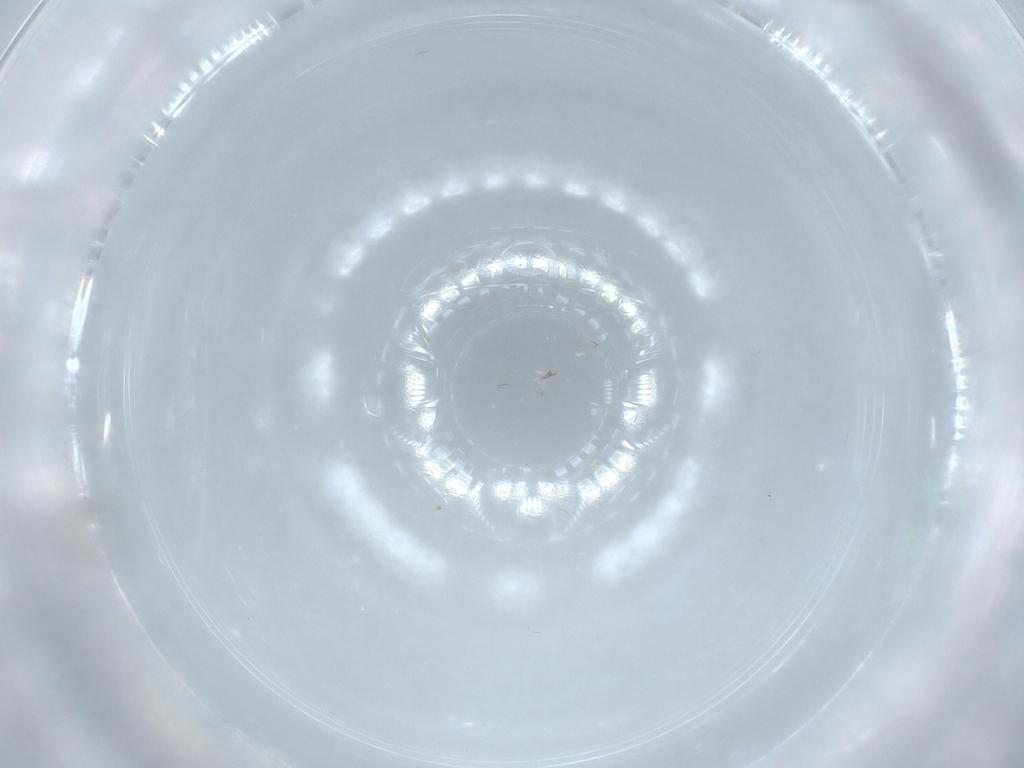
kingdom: Animalia
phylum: Arthropoda
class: Insecta
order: Diptera
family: Cecidomyiidae
